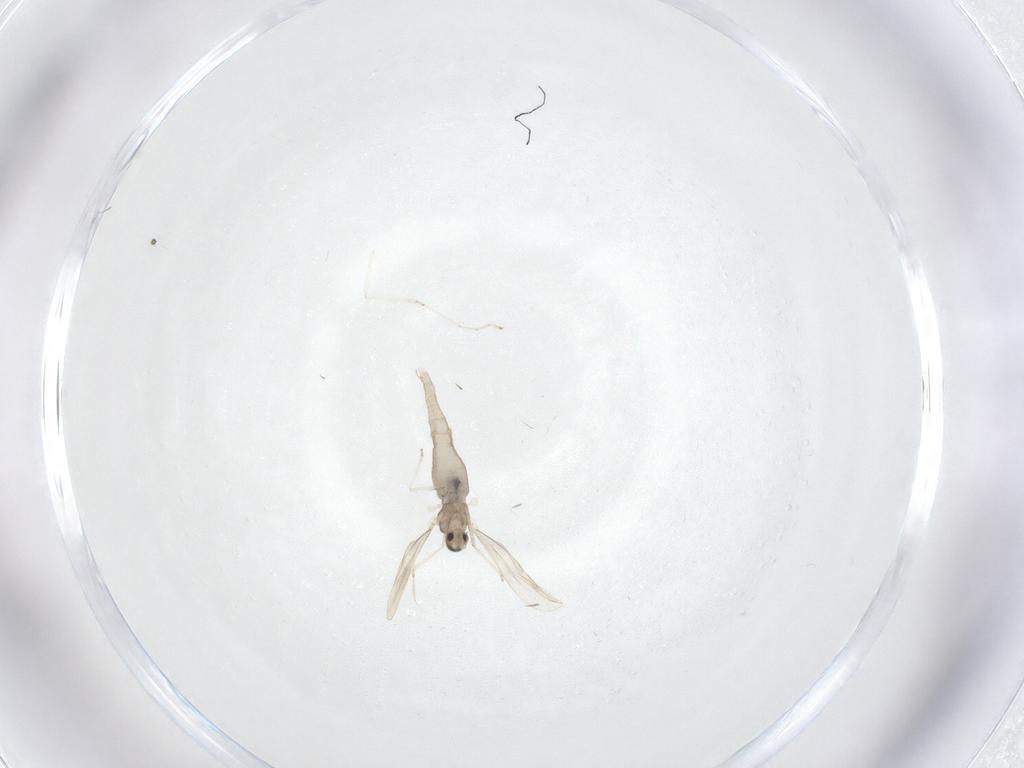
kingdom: Animalia
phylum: Arthropoda
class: Insecta
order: Diptera
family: Cecidomyiidae
